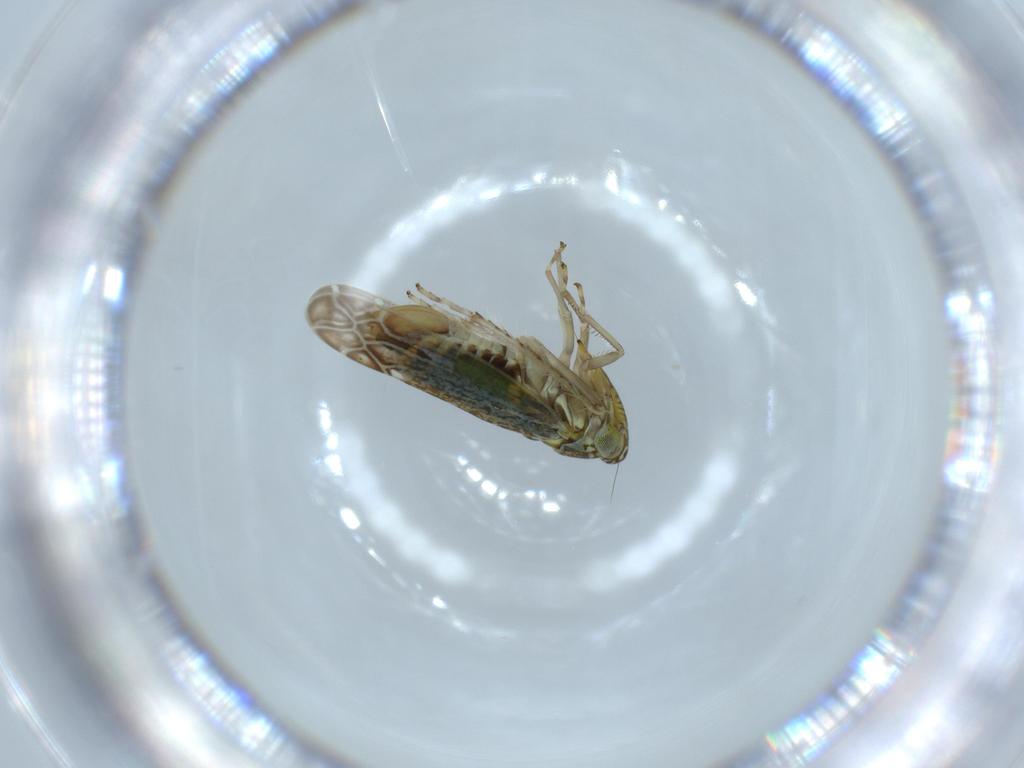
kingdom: Animalia
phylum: Arthropoda
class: Insecta
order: Hemiptera
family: Cicadellidae
